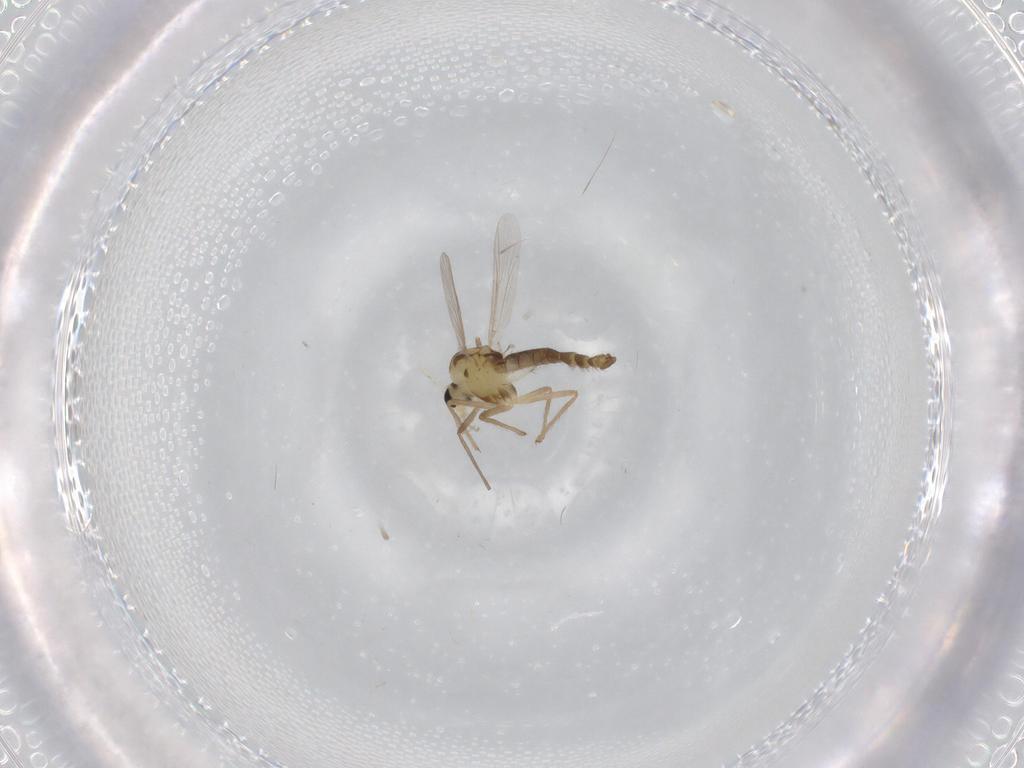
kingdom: Animalia
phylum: Arthropoda
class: Insecta
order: Diptera
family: Chironomidae
